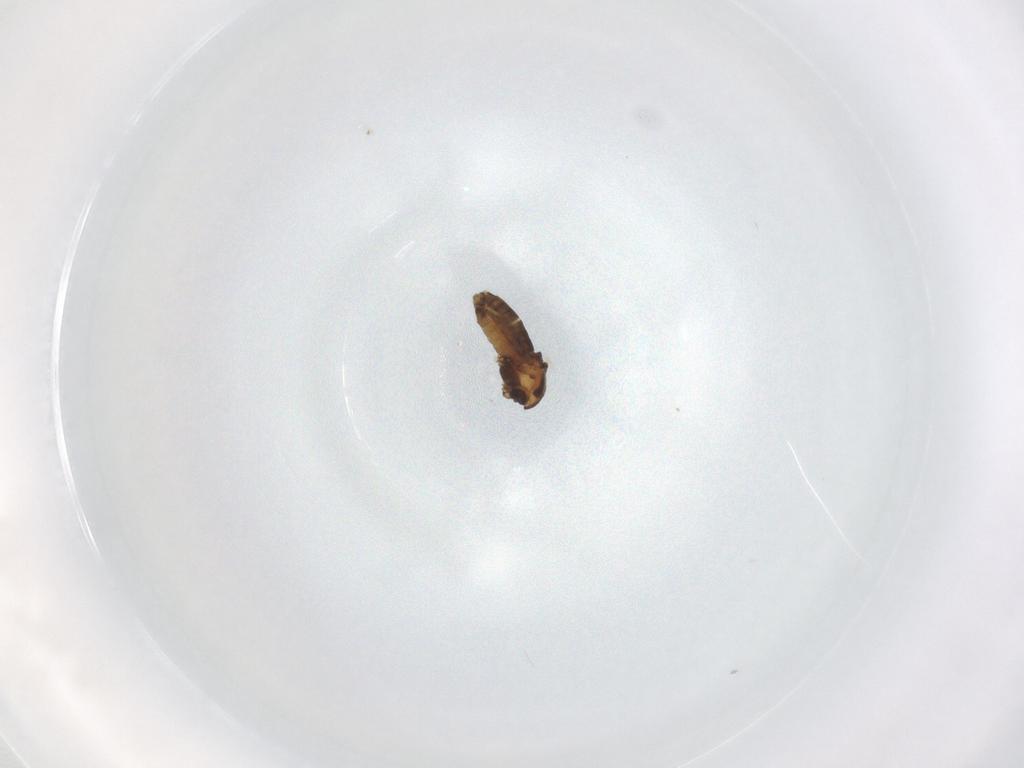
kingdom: Animalia
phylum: Arthropoda
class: Insecta
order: Diptera
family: Chironomidae
